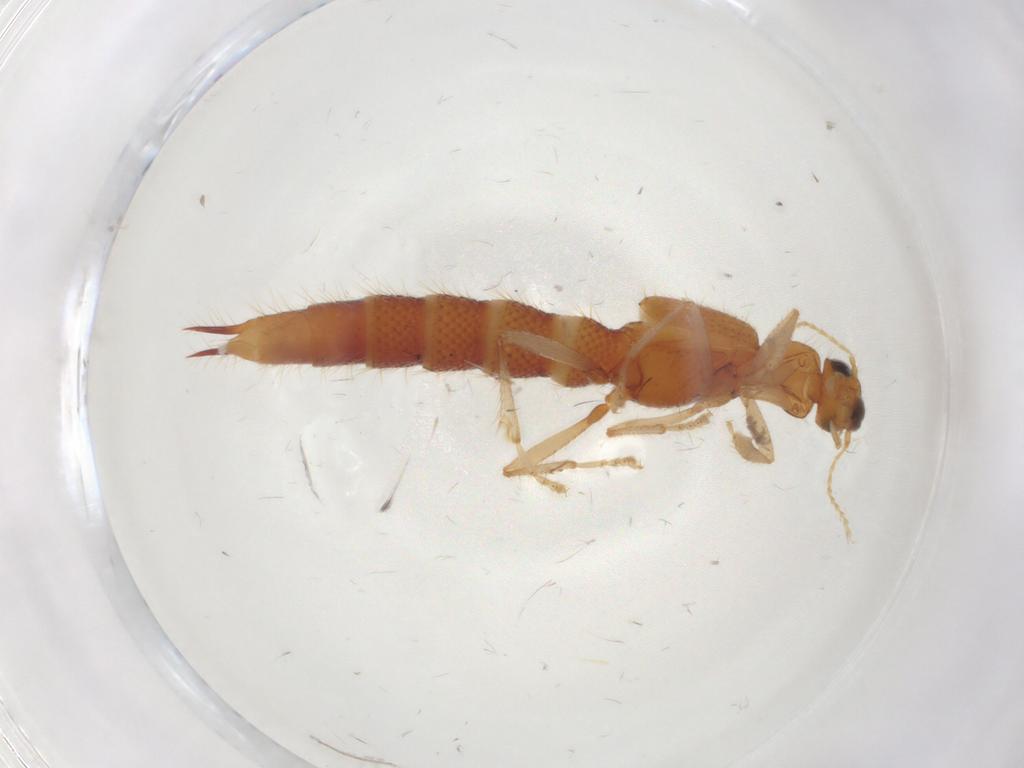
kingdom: Animalia
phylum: Arthropoda
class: Insecta
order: Coleoptera
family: Staphylinidae
